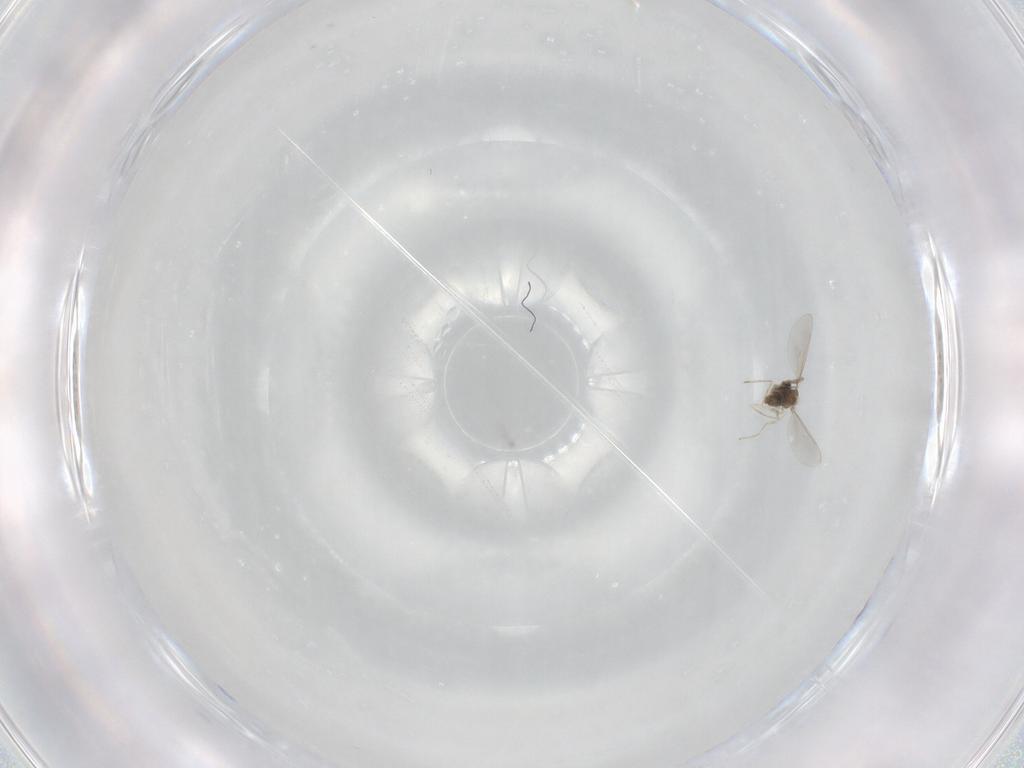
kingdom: Animalia
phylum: Arthropoda
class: Insecta
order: Diptera
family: Cecidomyiidae
